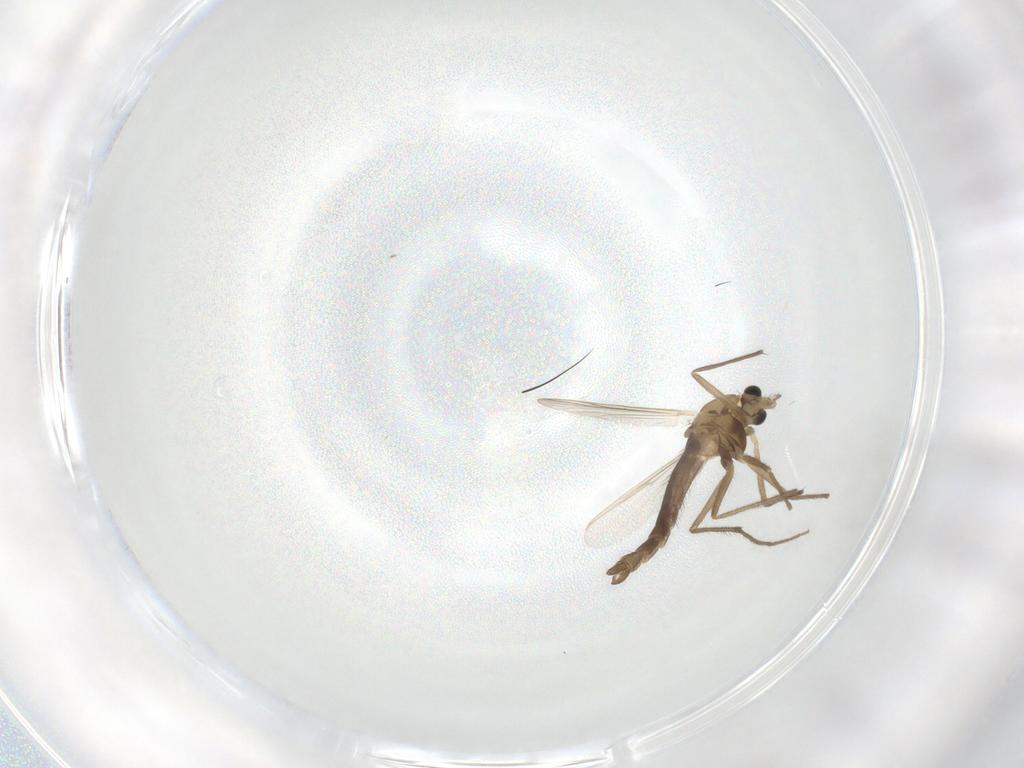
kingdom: Animalia
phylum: Arthropoda
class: Insecta
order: Diptera
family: Chironomidae
